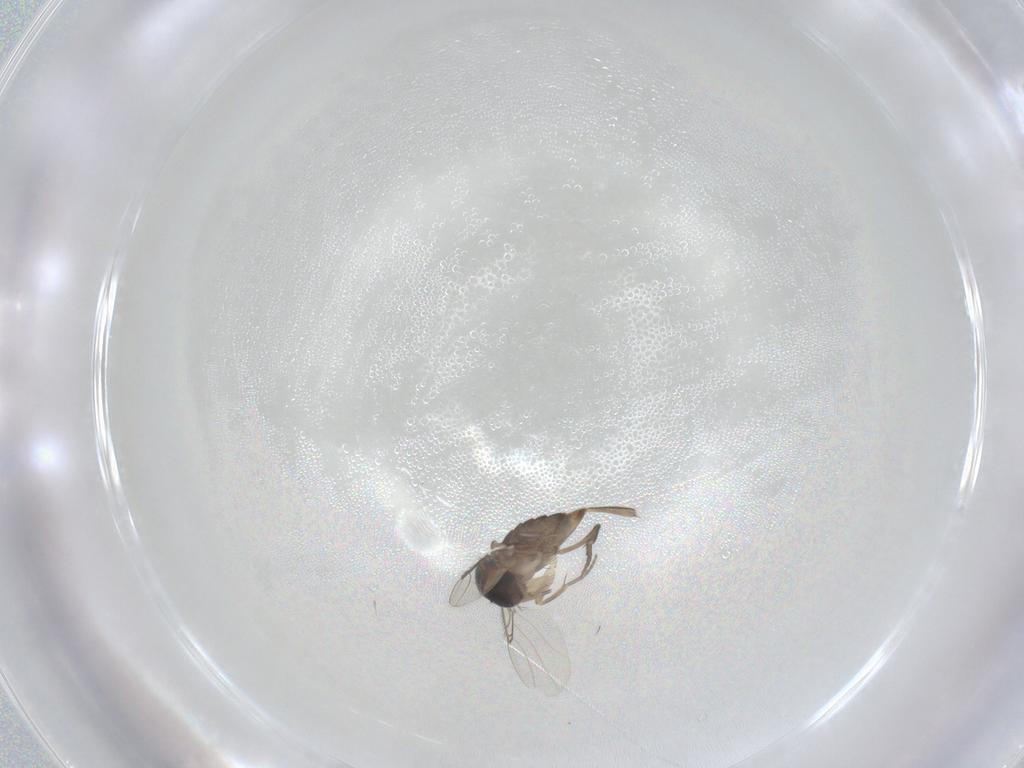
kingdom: Animalia
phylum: Arthropoda
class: Insecta
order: Diptera
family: Phoridae
